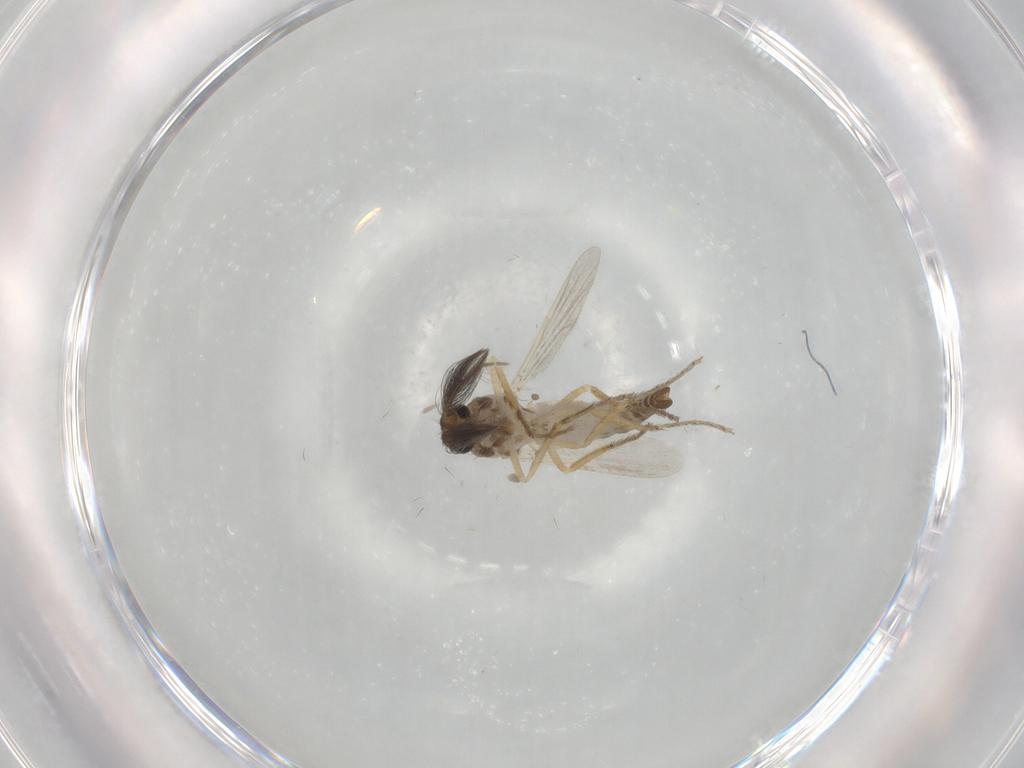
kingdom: Animalia
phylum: Arthropoda
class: Insecta
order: Diptera
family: Ceratopogonidae
